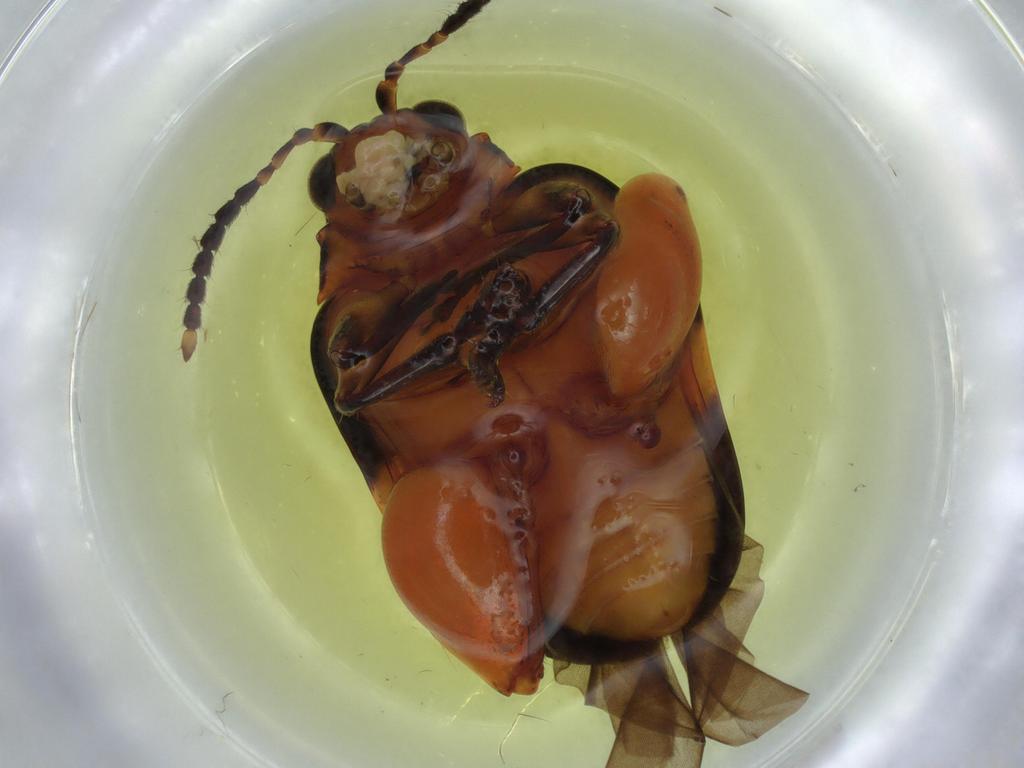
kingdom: Animalia
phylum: Arthropoda
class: Insecta
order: Coleoptera
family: Chrysomelidae
